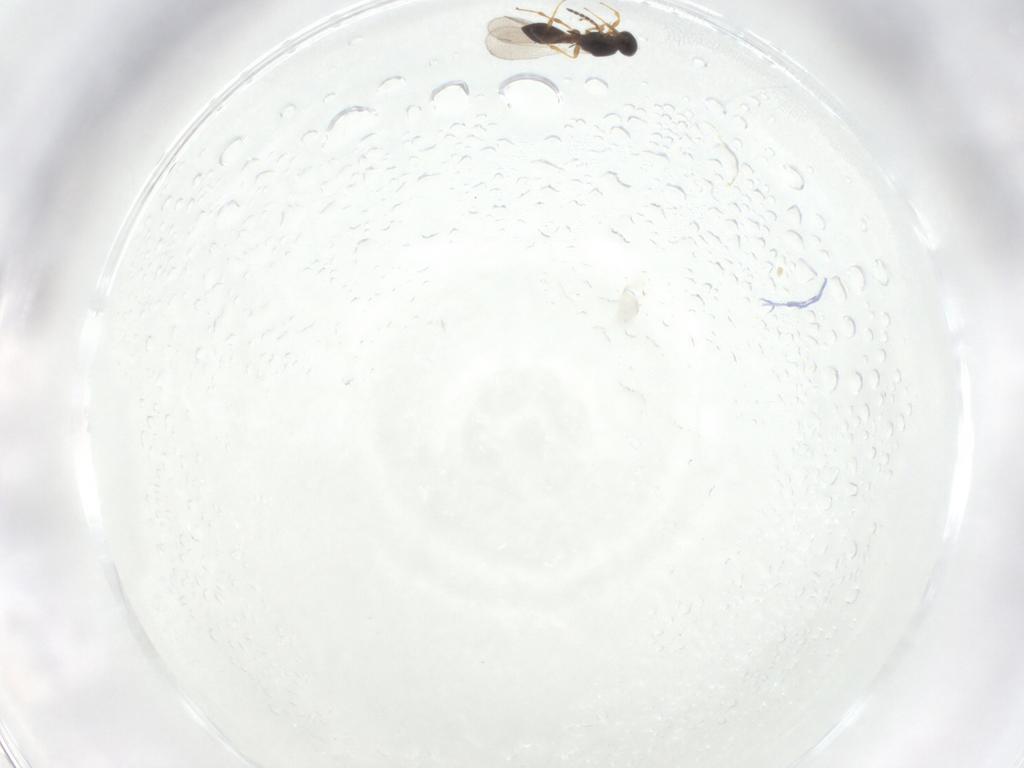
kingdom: Animalia
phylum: Arthropoda
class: Insecta
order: Hymenoptera
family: Platygastridae
